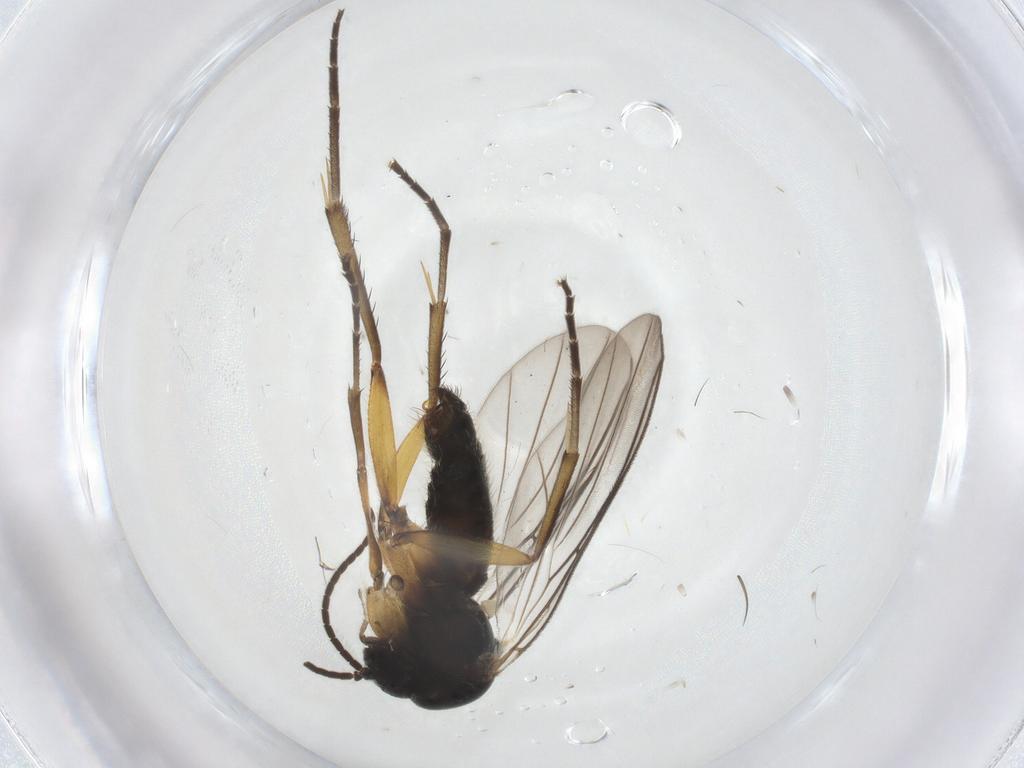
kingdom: Animalia
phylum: Arthropoda
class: Insecta
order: Diptera
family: Mycetophilidae
